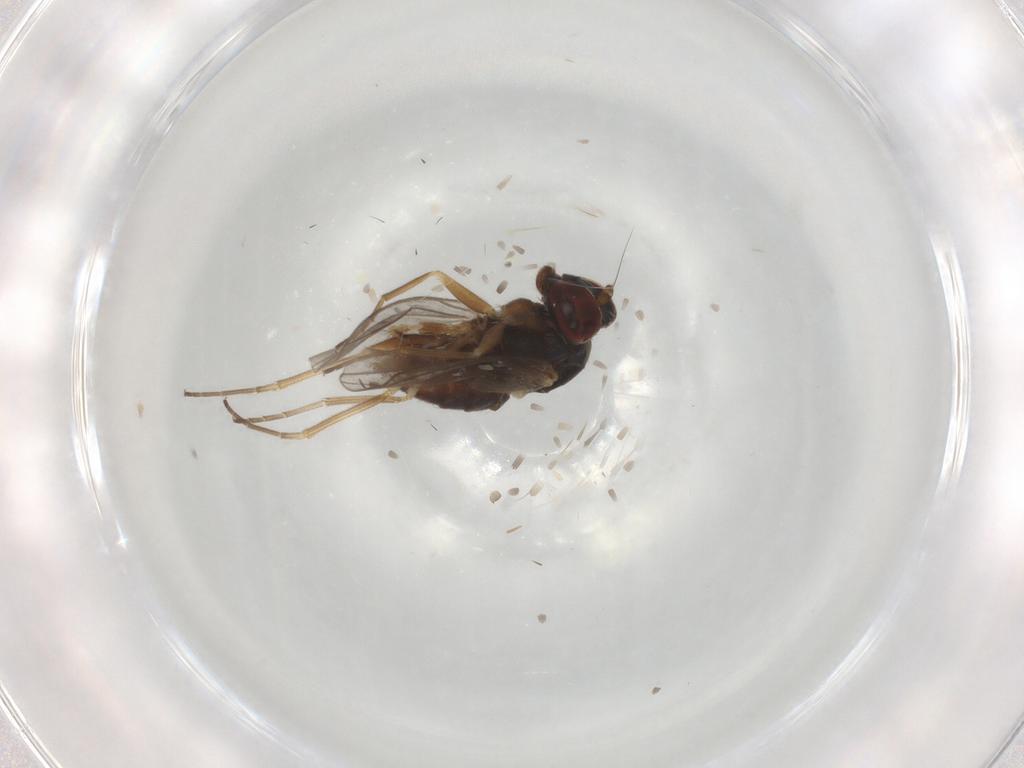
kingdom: Animalia
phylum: Arthropoda
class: Insecta
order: Diptera
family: Dolichopodidae
